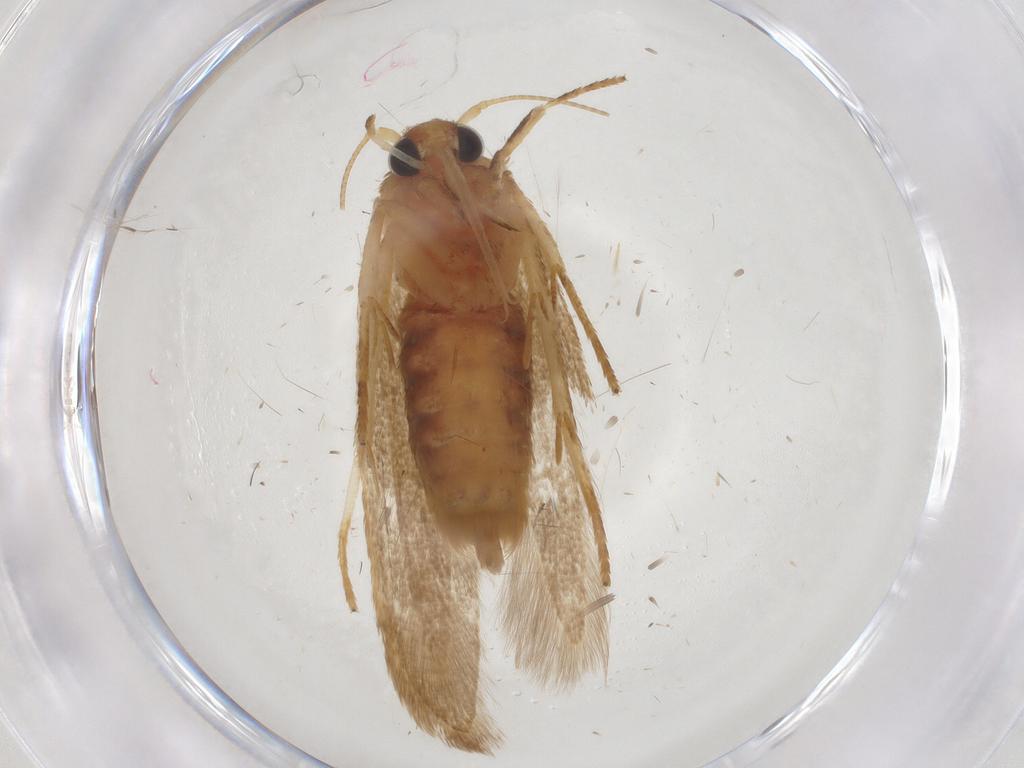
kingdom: Animalia
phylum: Arthropoda
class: Insecta
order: Lepidoptera
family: Blastobasidae
